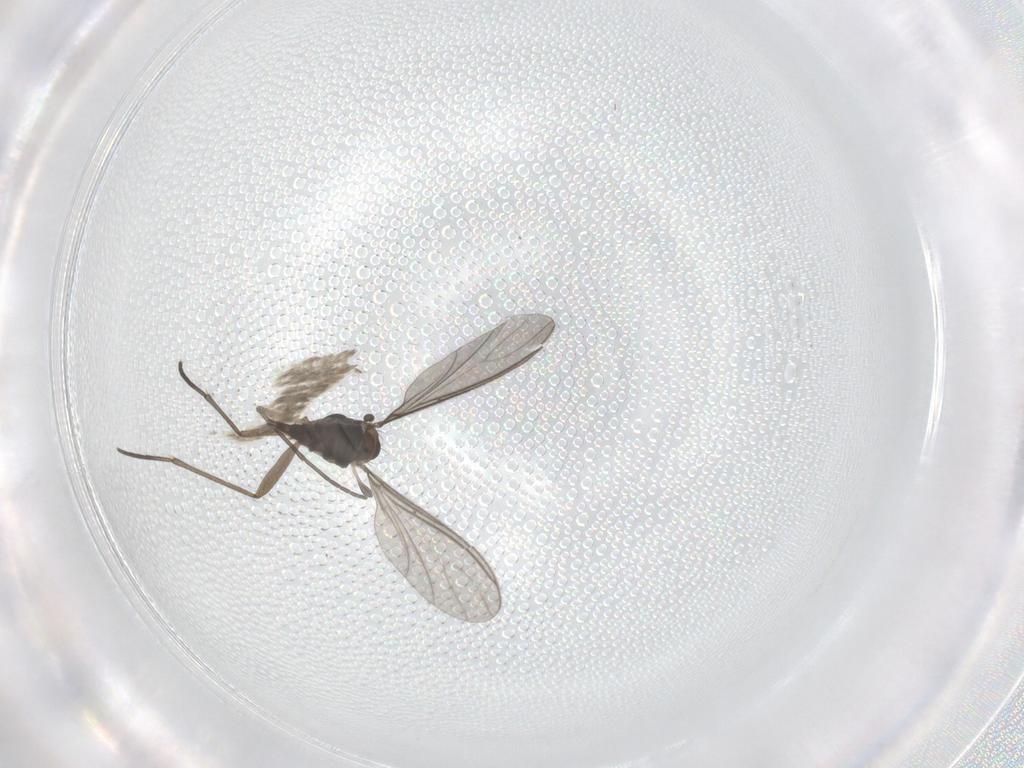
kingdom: Animalia
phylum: Arthropoda
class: Insecta
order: Diptera
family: Sciaridae
